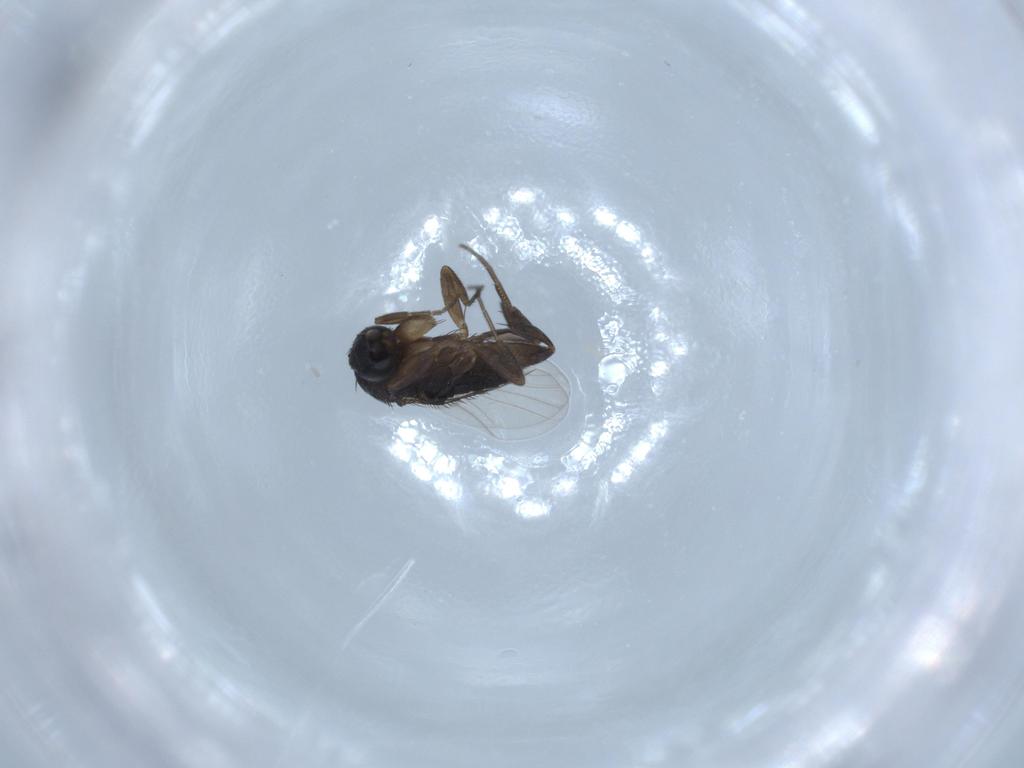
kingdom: Animalia
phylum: Arthropoda
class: Insecta
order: Diptera
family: Phoridae
